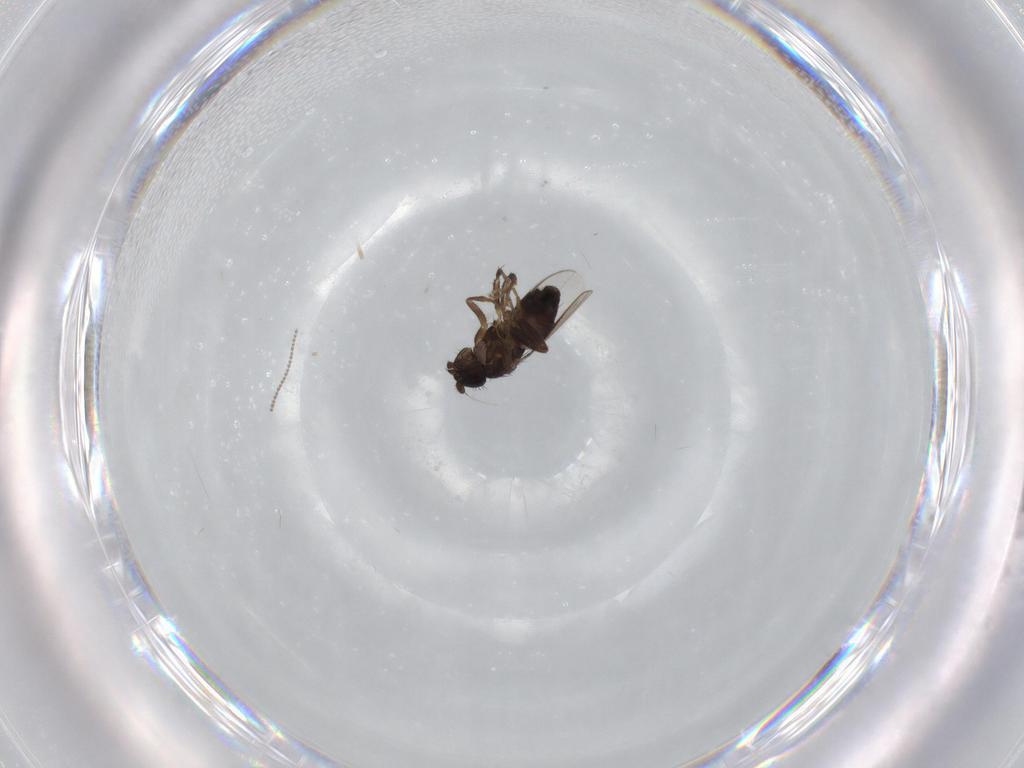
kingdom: Animalia
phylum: Arthropoda
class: Insecta
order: Diptera
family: Sphaeroceridae
